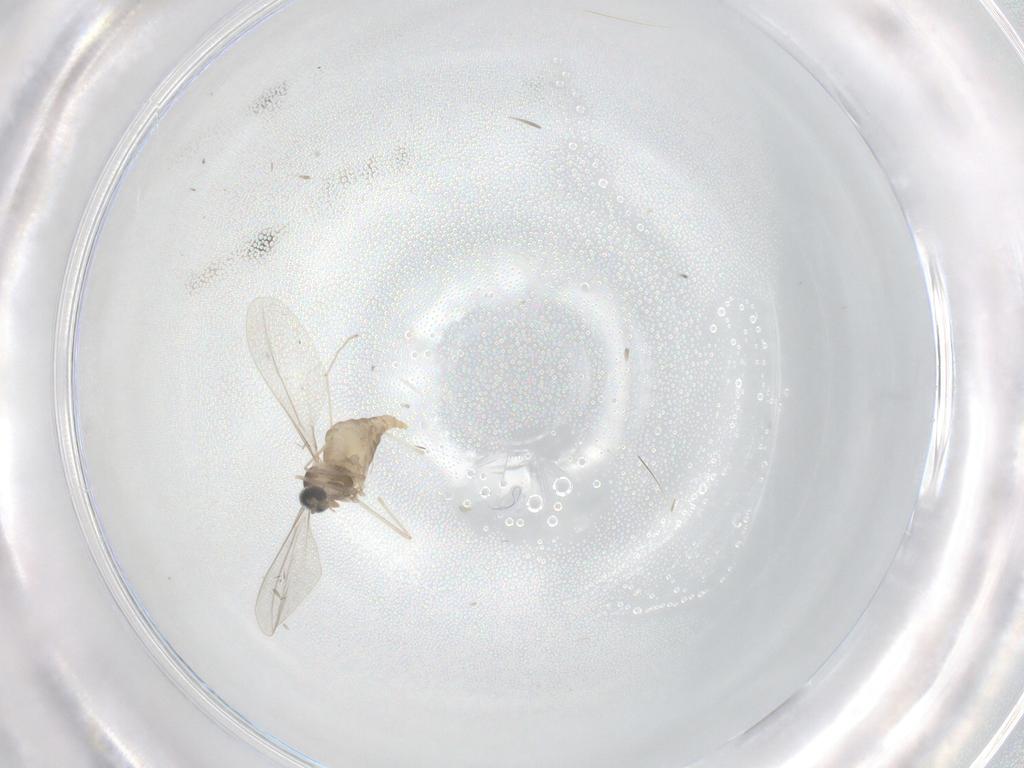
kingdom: Animalia
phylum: Arthropoda
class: Insecta
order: Diptera
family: Cecidomyiidae
